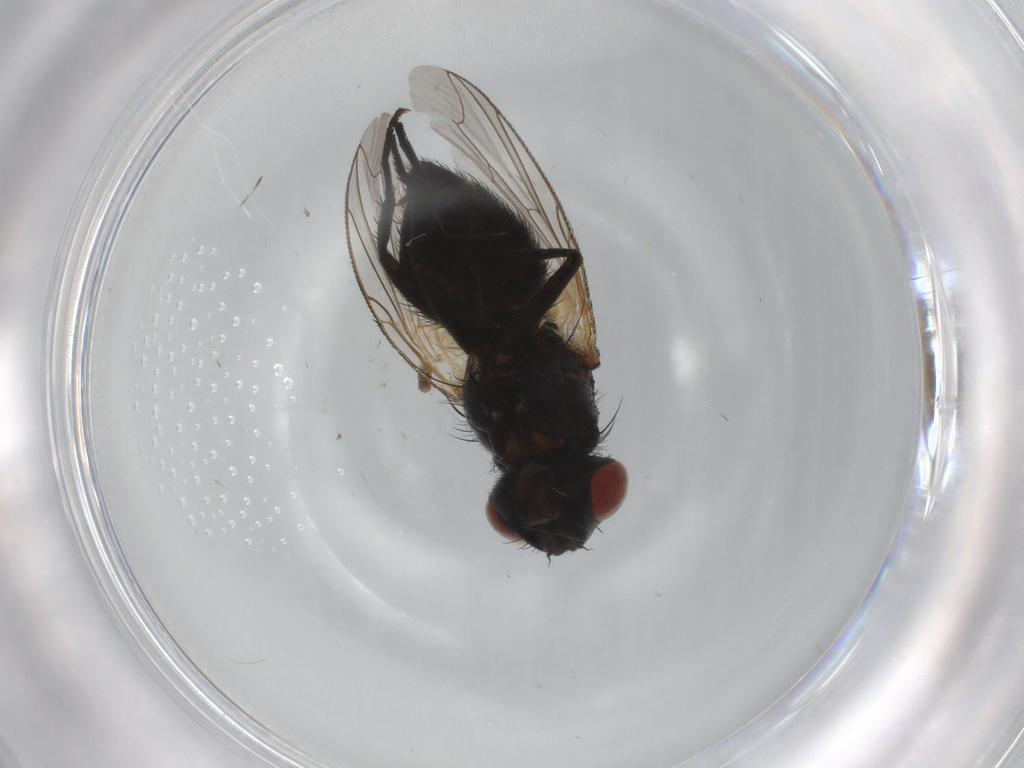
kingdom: Animalia
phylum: Arthropoda
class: Insecta
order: Diptera
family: Sarcophagidae
